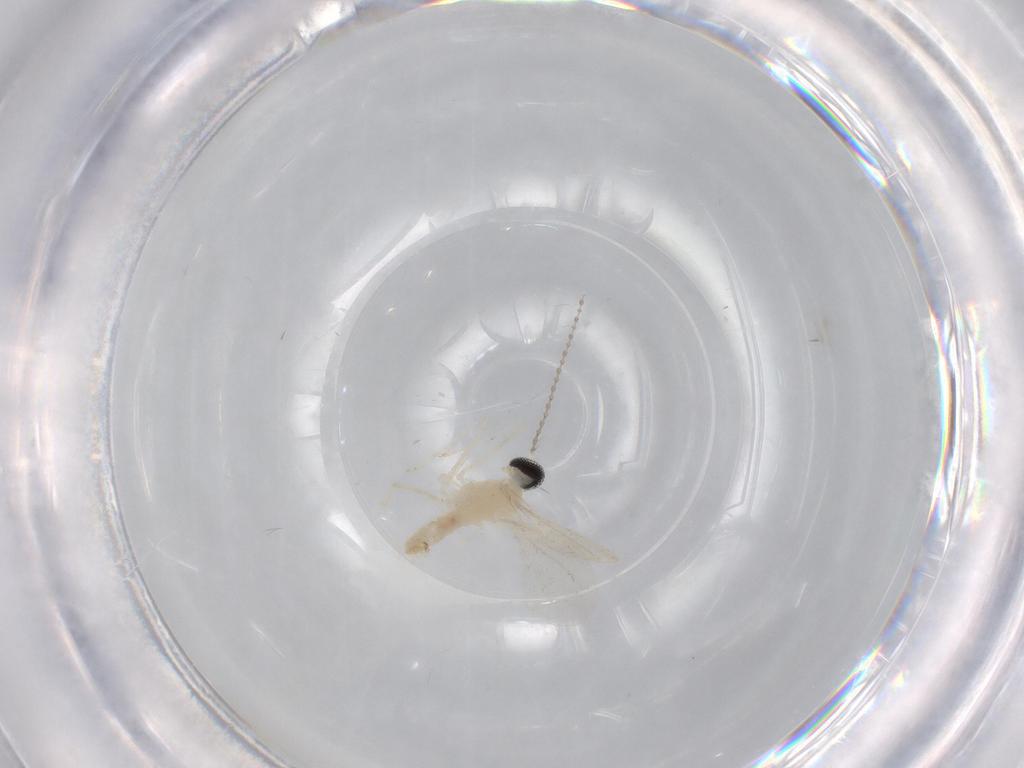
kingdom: Animalia
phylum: Arthropoda
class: Insecta
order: Diptera
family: Cecidomyiidae
